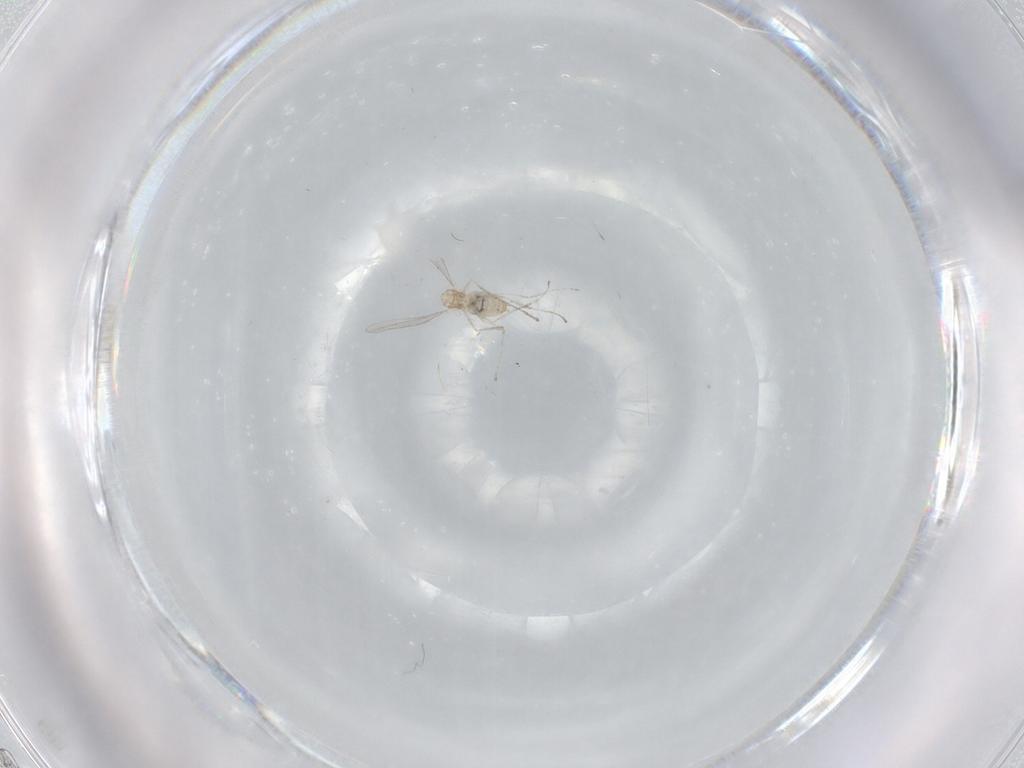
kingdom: Animalia
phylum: Arthropoda
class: Insecta
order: Diptera
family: Cecidomyiidae
